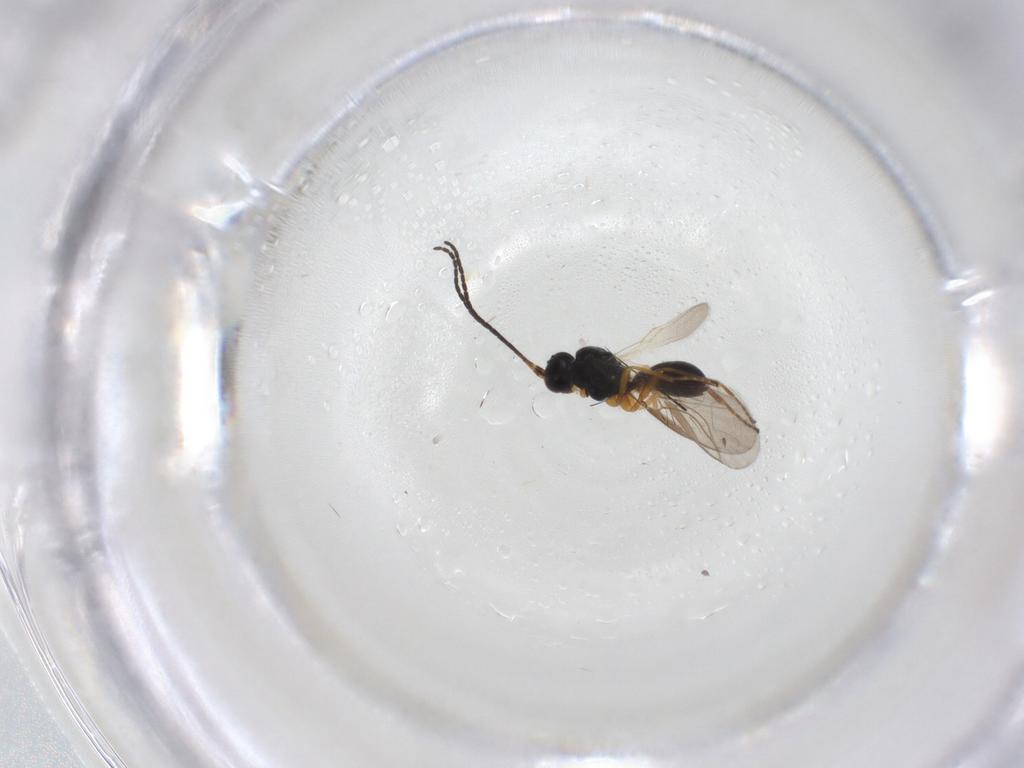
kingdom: Animalia
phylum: Arthropoda
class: Insecta
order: Hymenoptera
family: Braconidae
